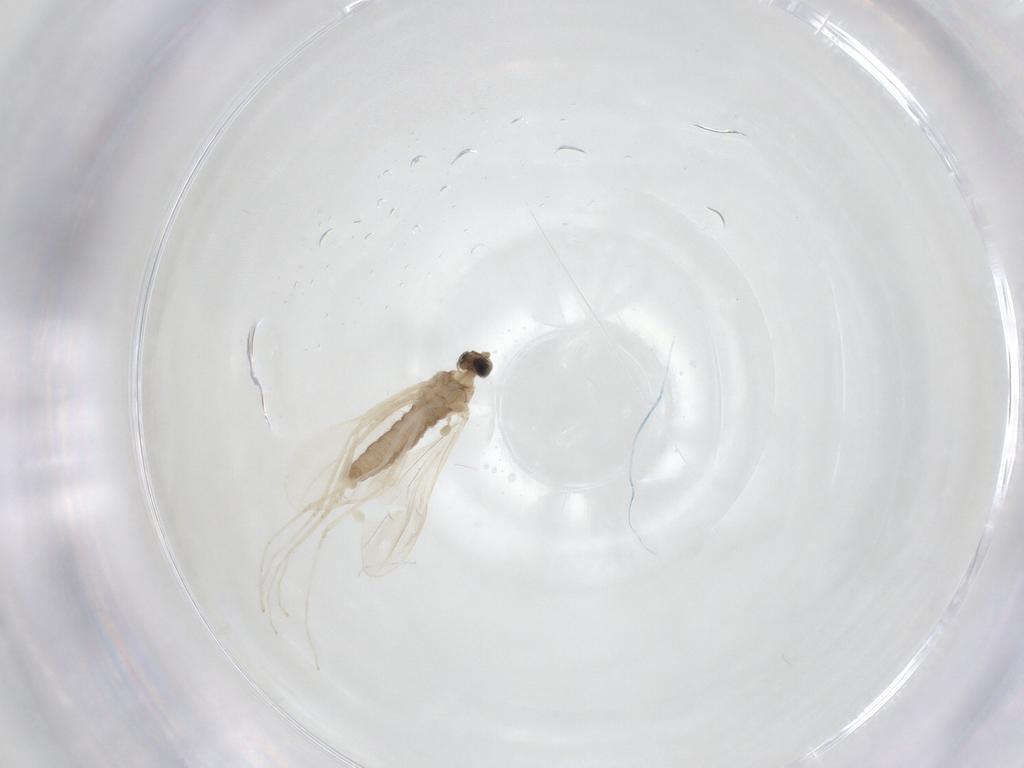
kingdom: Animalia
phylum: Arthropoda
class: Insecta
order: Diptera
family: Cecidomyiidae
